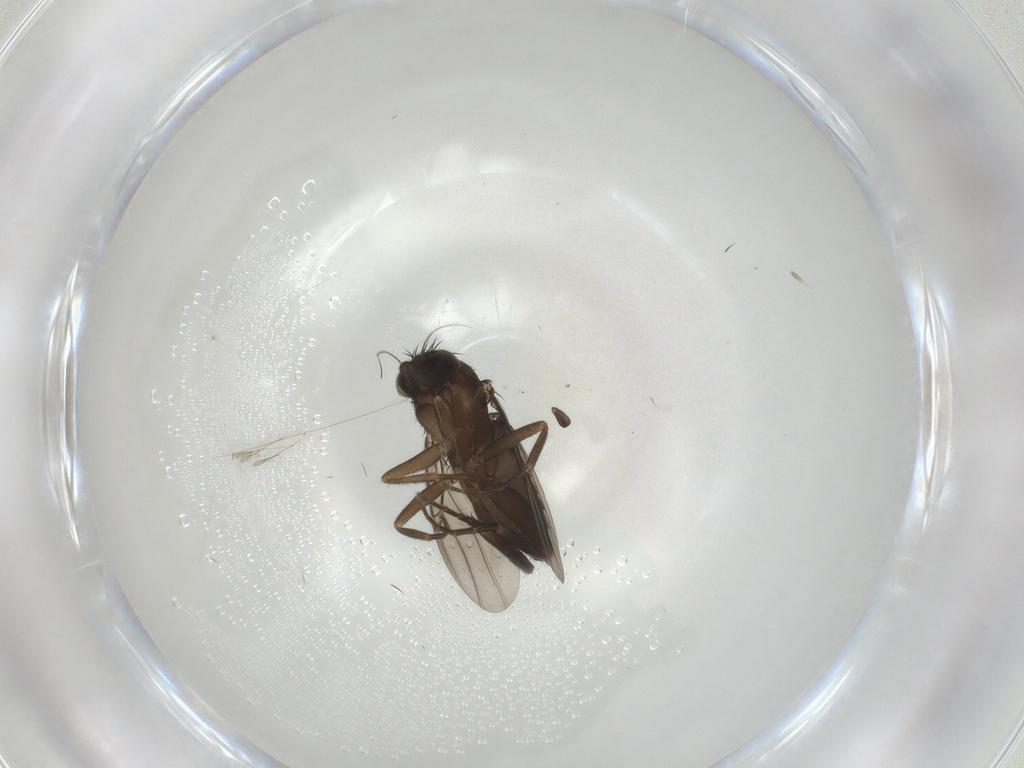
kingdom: Animalia
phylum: Arthropoda
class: Insecta
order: Diptera
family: Phoridae
